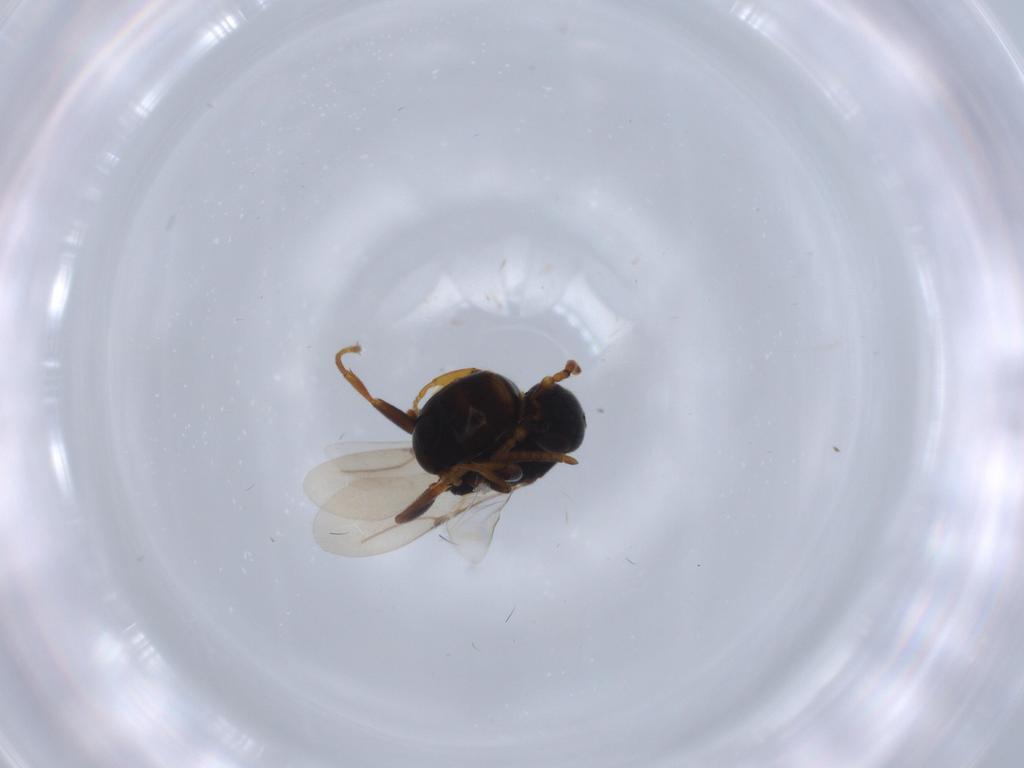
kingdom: Animalia
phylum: Arthropoda
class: Insecta
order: Hymenoptera
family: Bethylidae
